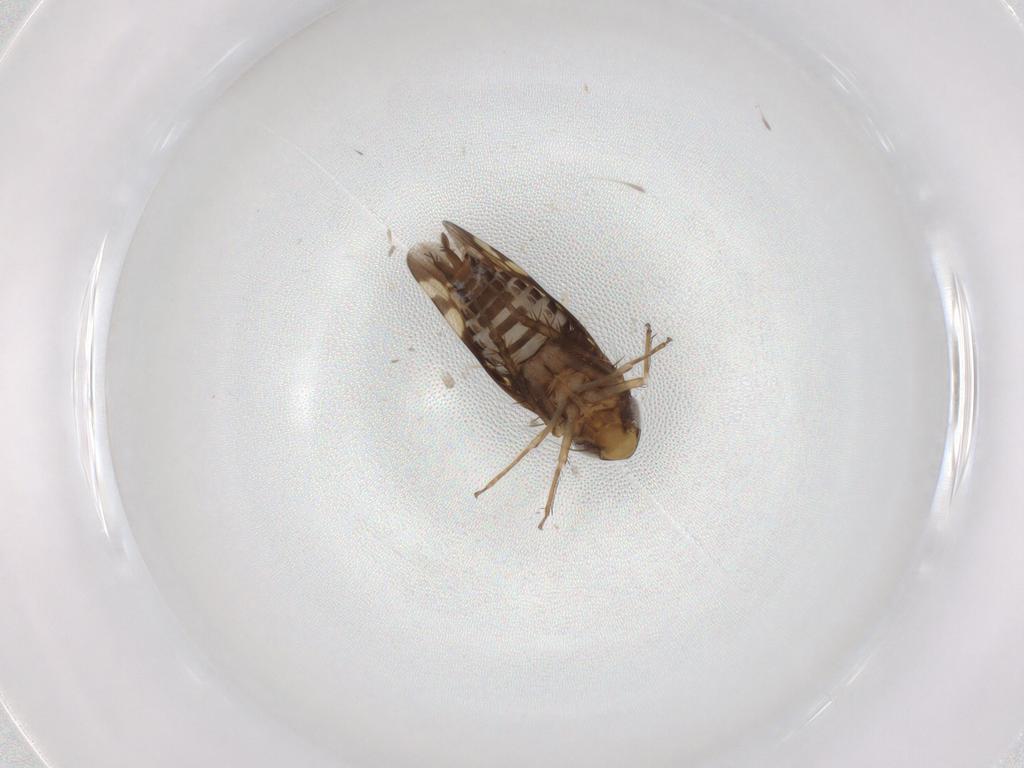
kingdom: Animalia
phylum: Arthropoda
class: Insecta
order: Hemiptera
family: Cicadellidae
